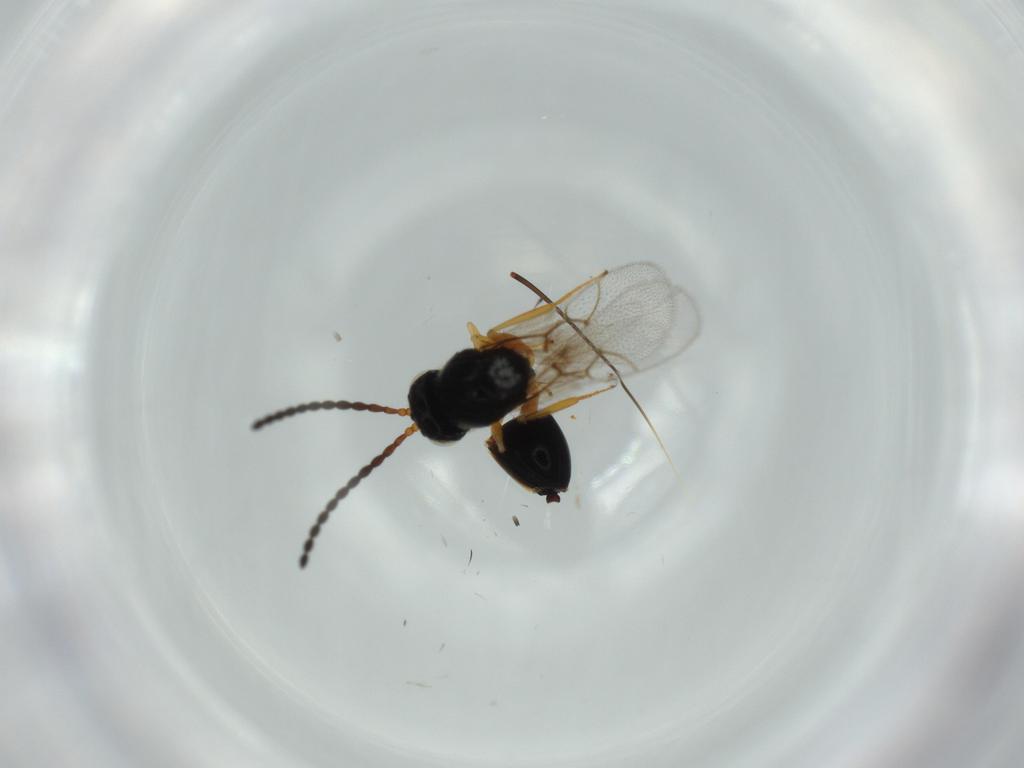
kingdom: Animalia
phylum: Arthropoda
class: Insecta
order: Hymenoptera
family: Figitidae
